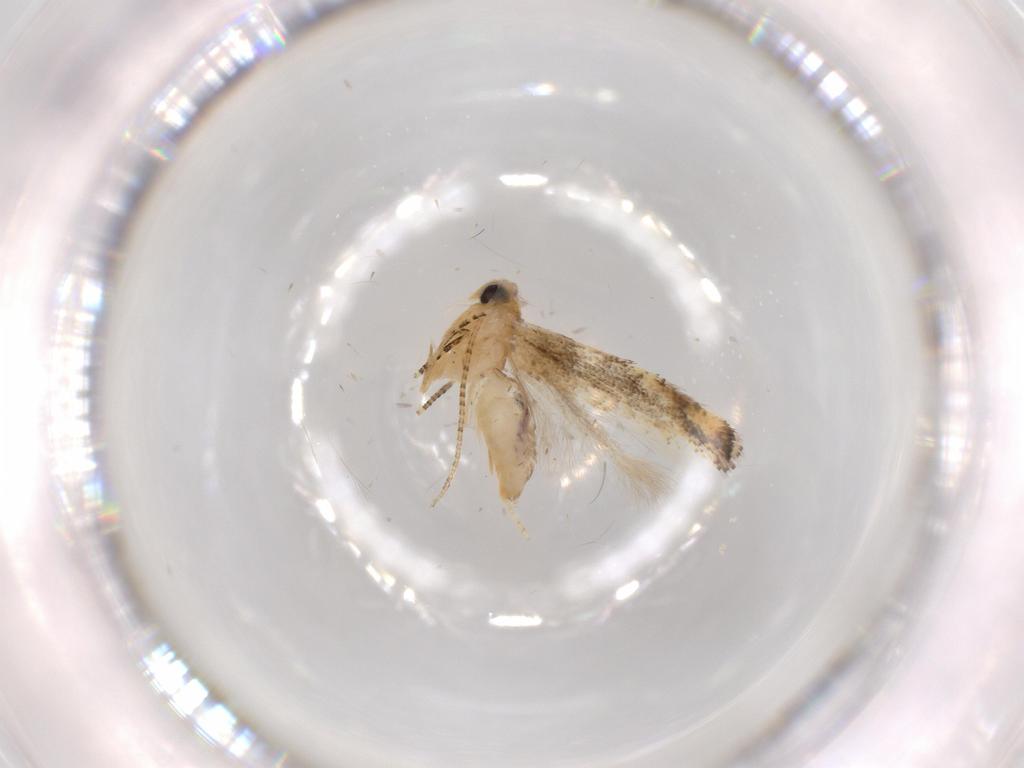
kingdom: Animalia
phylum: Arthropoda
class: Insecta
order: Lepidoptera
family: Bucculatricidae
